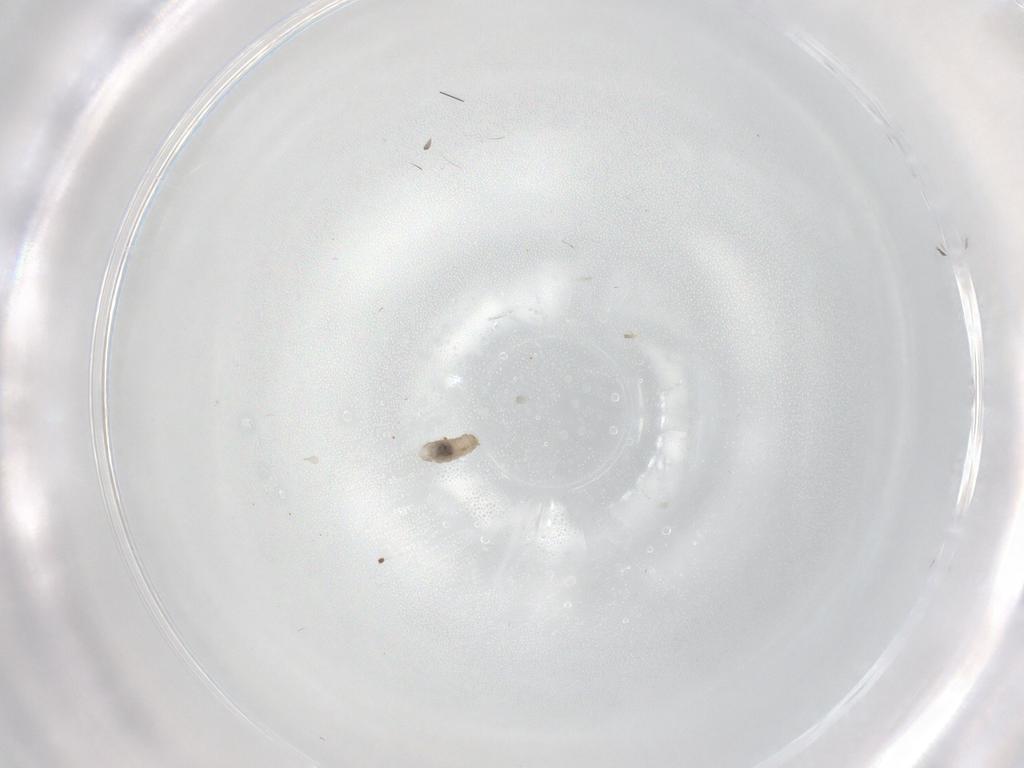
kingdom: Animalia
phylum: Arthropoda
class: Insecta
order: Diptera
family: Cecidomyiidae
